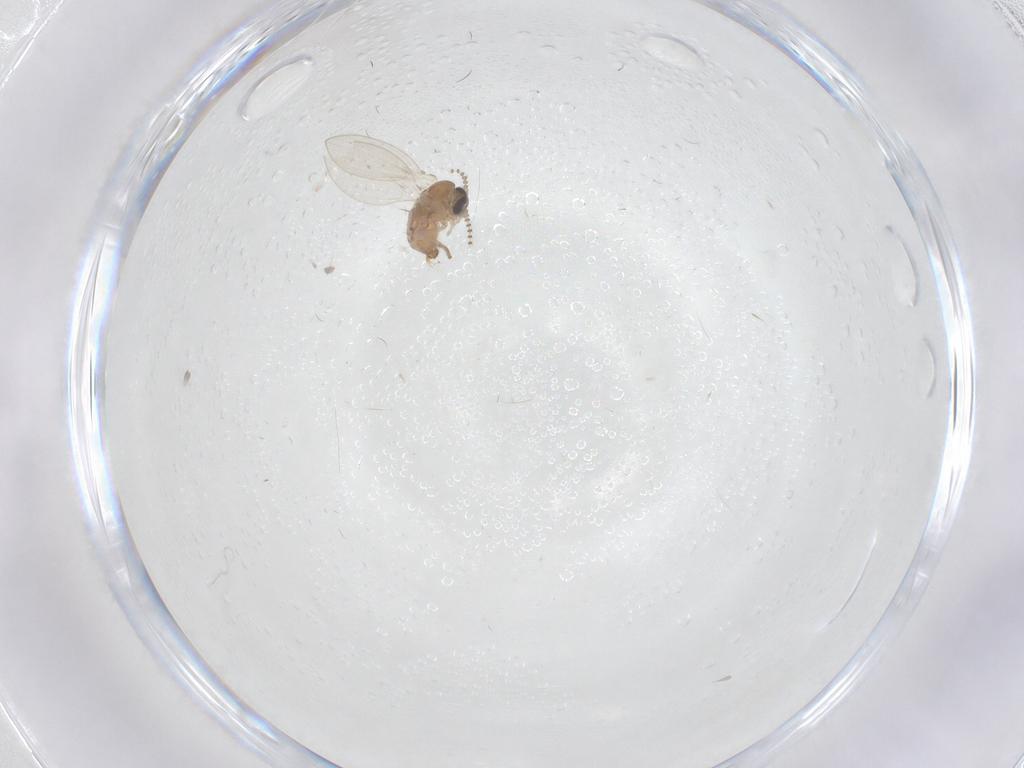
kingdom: Animalia
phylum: Arthropoda
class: Insecta
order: Diptera
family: Psychodidae
